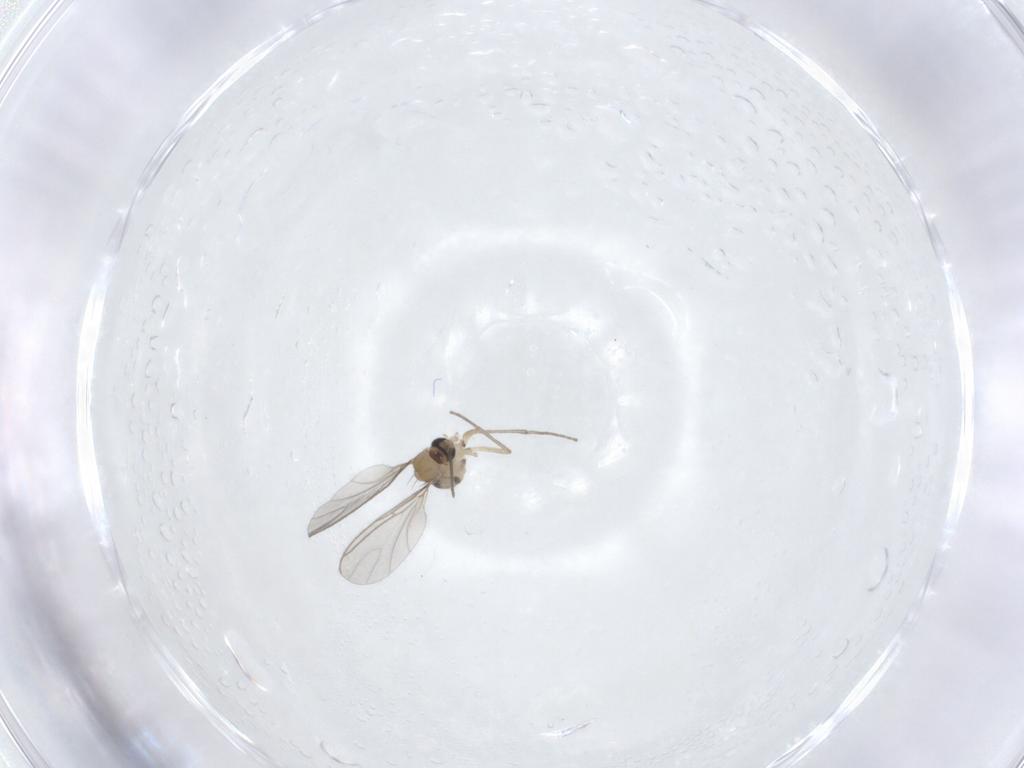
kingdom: Animalia
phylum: Arthropoda
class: Insecta
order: Diptera
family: Sciaridae
